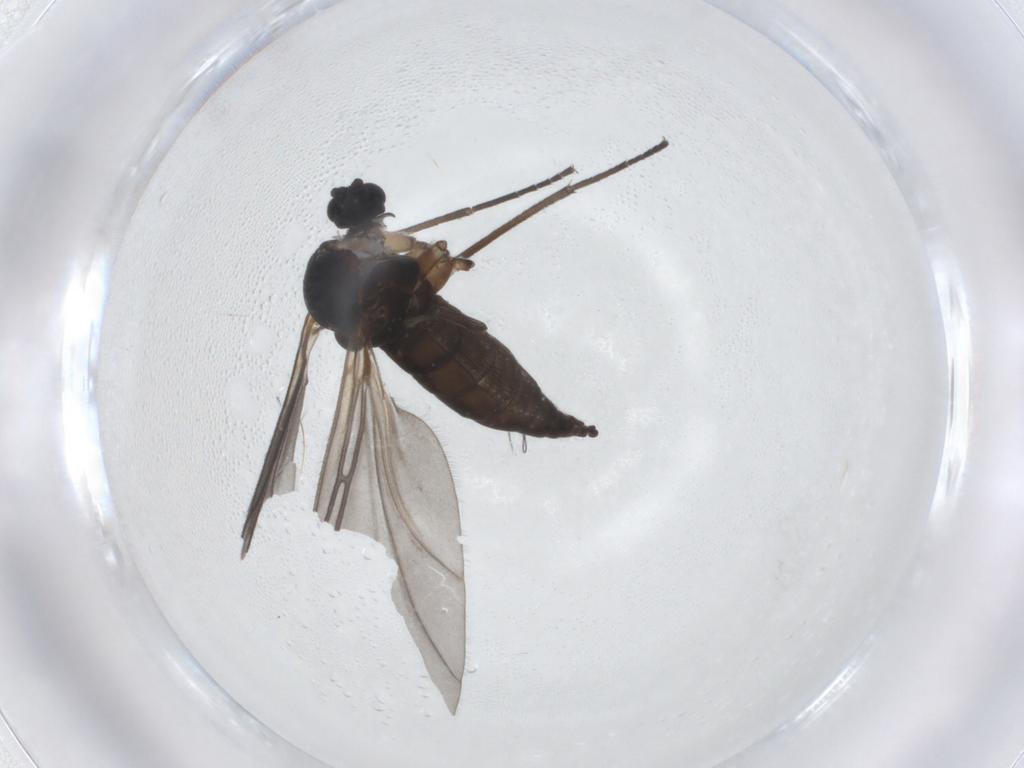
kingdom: Animalia
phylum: Arthropoda
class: Insecta
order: Diptera
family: Sciaridae
